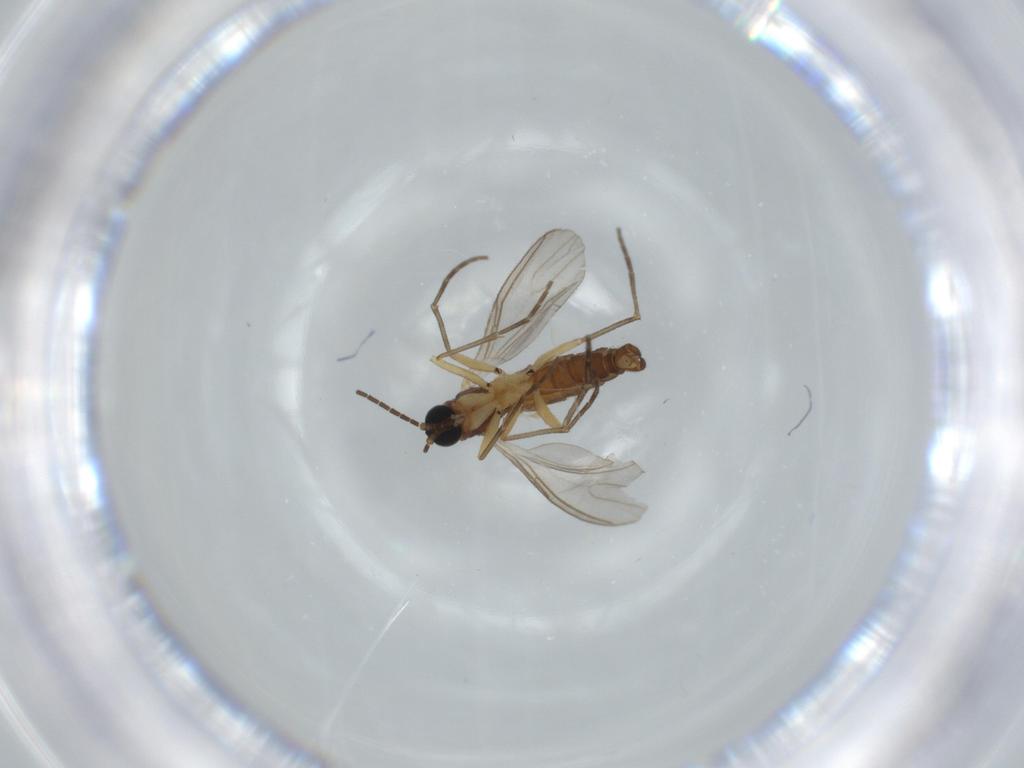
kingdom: Animalia
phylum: Arthropoda
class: Insecta
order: Diptera
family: Sciaridae
